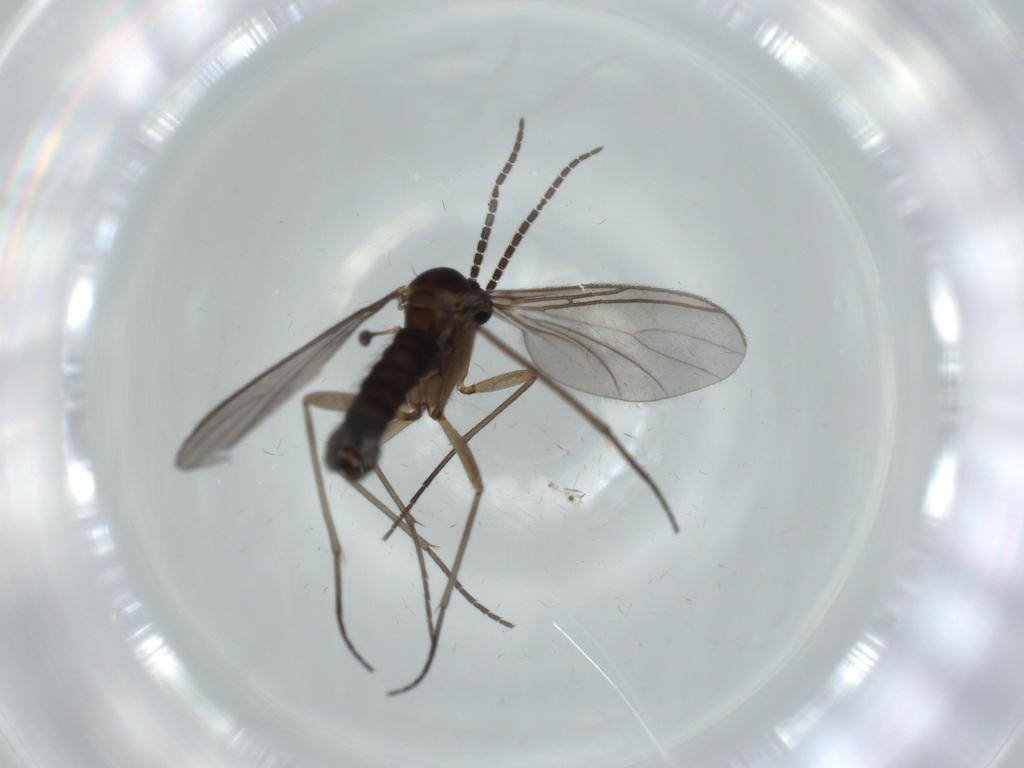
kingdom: Animalia
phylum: Arthropoda
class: Insecta
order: Diptera
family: Sciaridae
